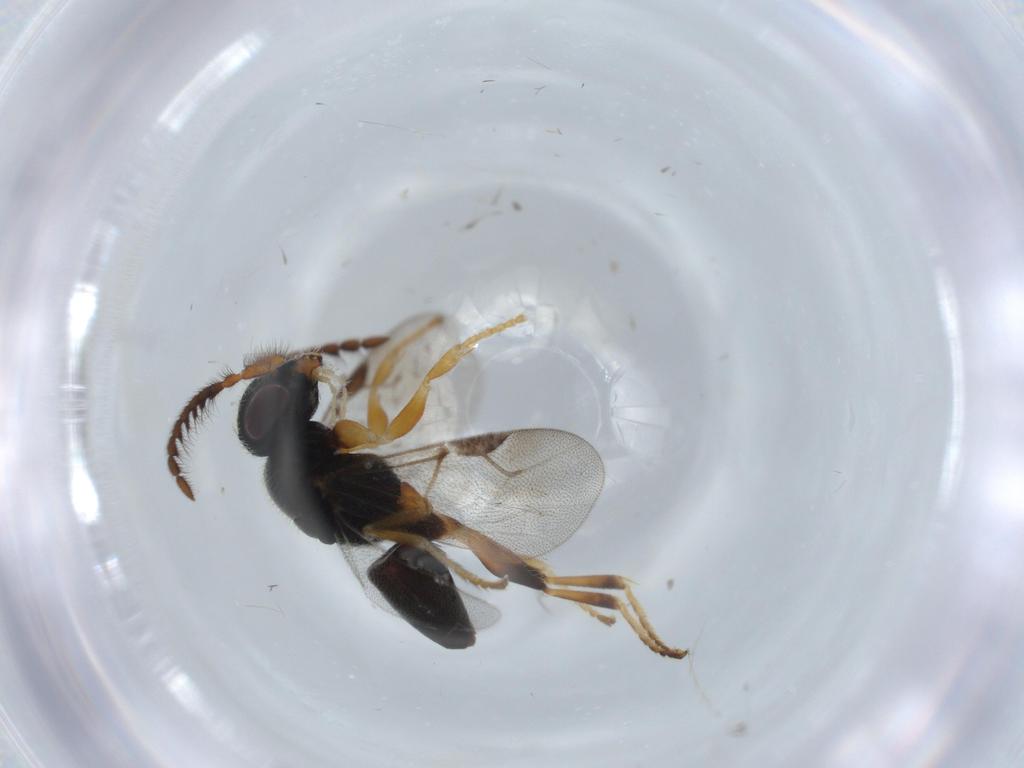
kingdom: Animalia
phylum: Arthropoda
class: Insecta
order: Hymenoptera
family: Dryinidae
